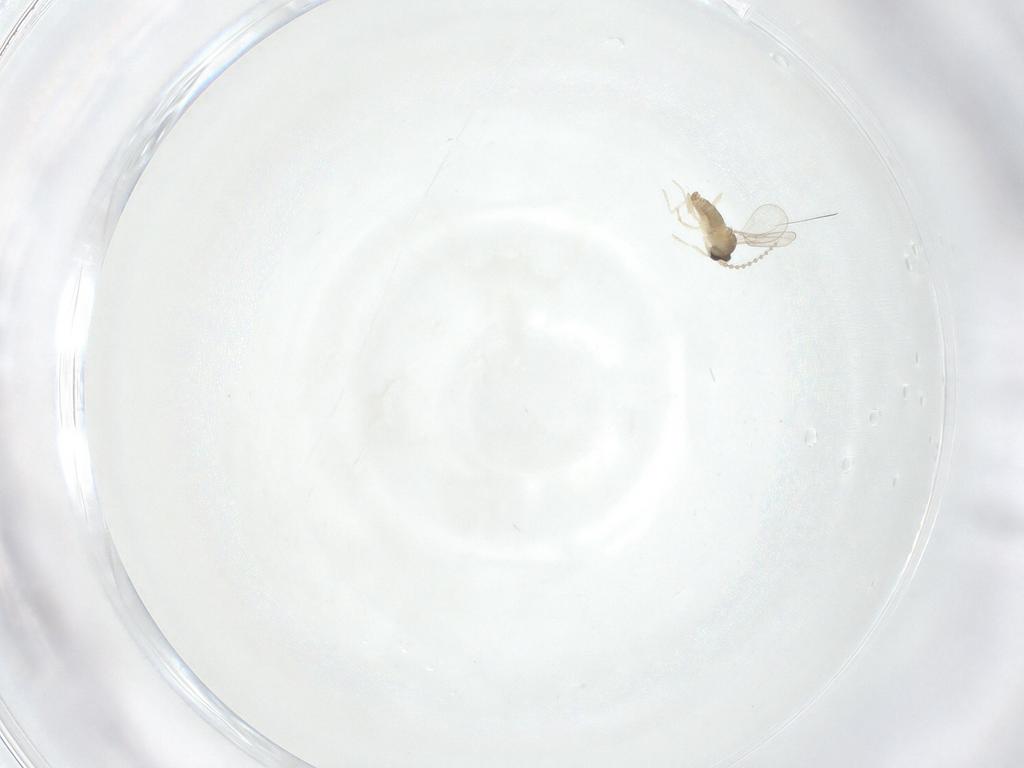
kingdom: Animalia
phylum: Arthropoda
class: Insecta
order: Diptera
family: Cecidomyiidae
